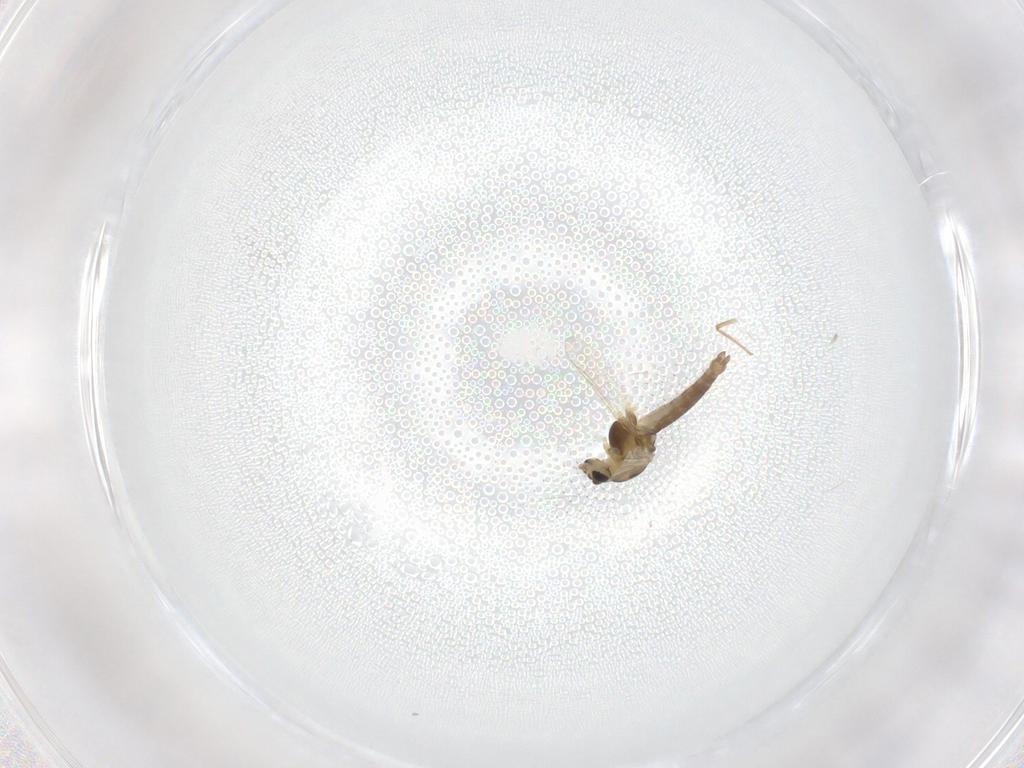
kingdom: Animalia
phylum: Arthropoda
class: Insecta
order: Diptera
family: Chironomidae
